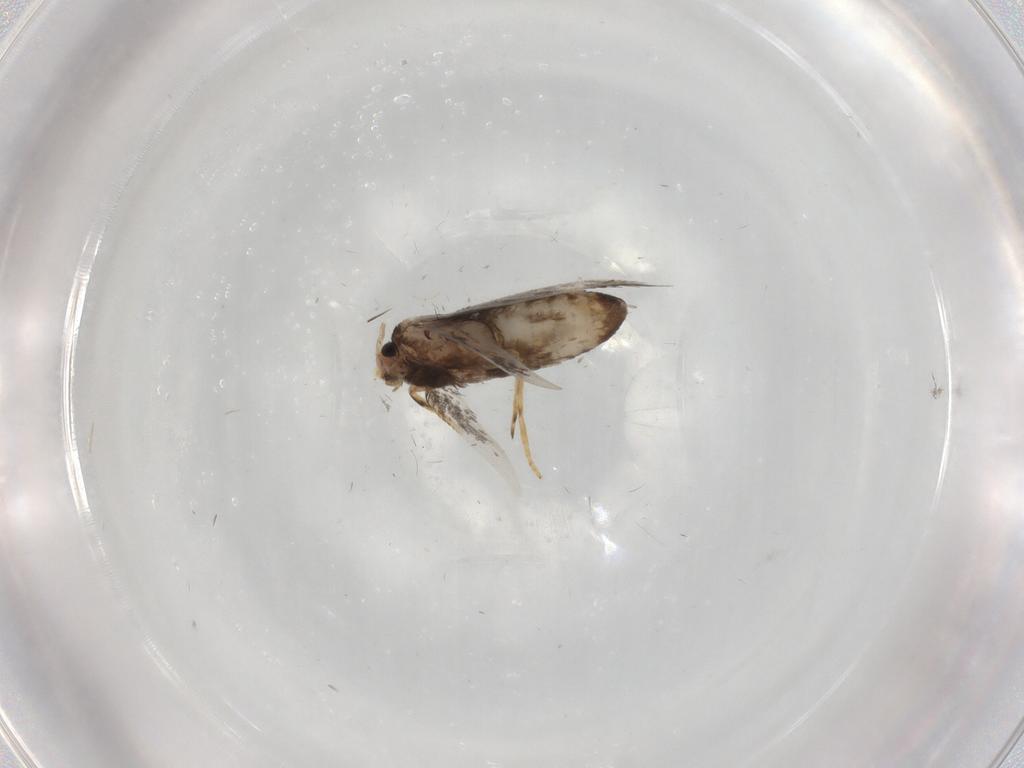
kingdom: Animalia
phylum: Arthropoda
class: Insecta
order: Lepidoptera
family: Nepticulidae
